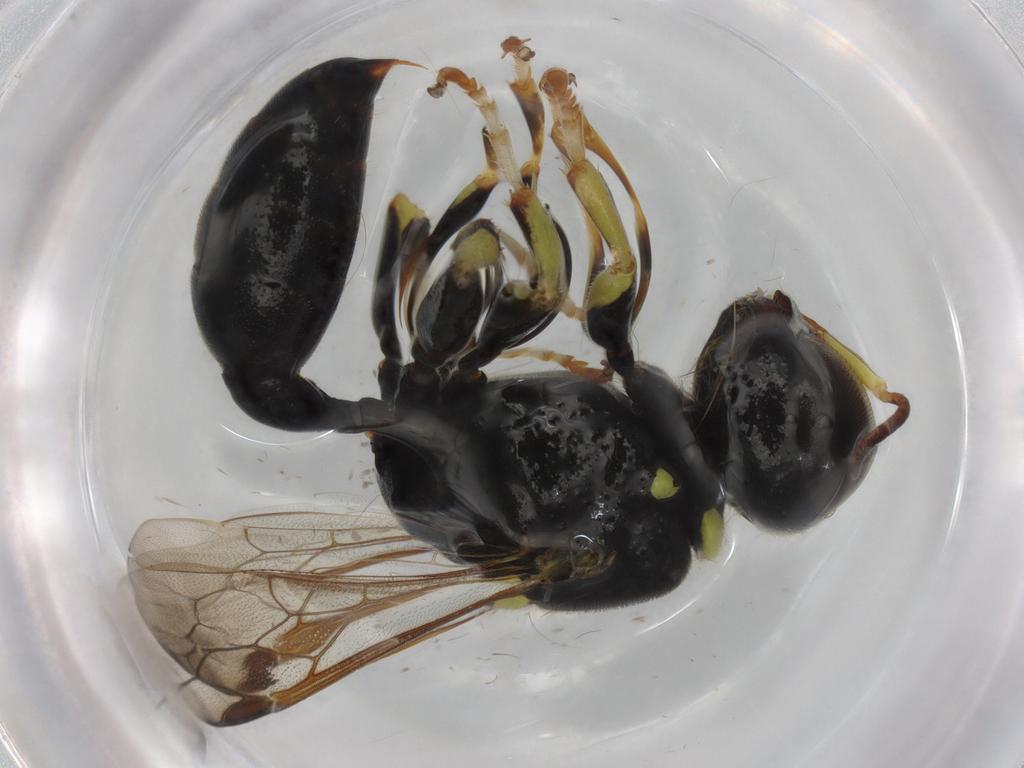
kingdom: Animalia
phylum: Arthropoda
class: Insecta
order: Hymenoptera
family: Crabronidae
